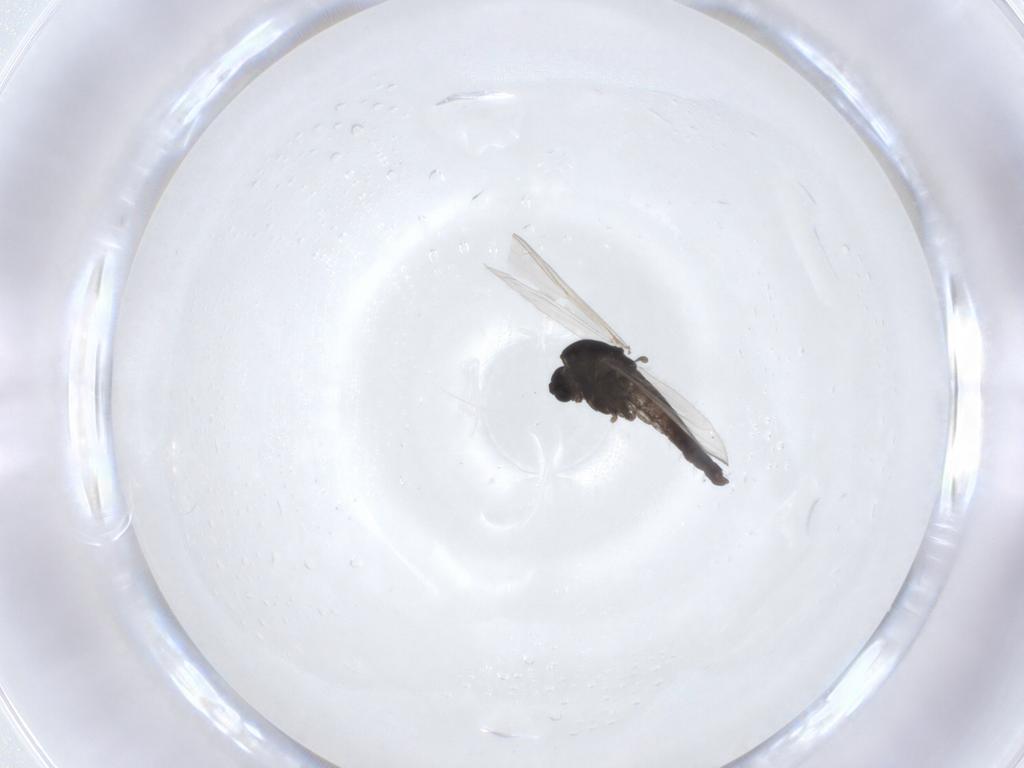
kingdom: Animalia
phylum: Arthropoda
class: Insecta
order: Diptera
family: Chironomidae
